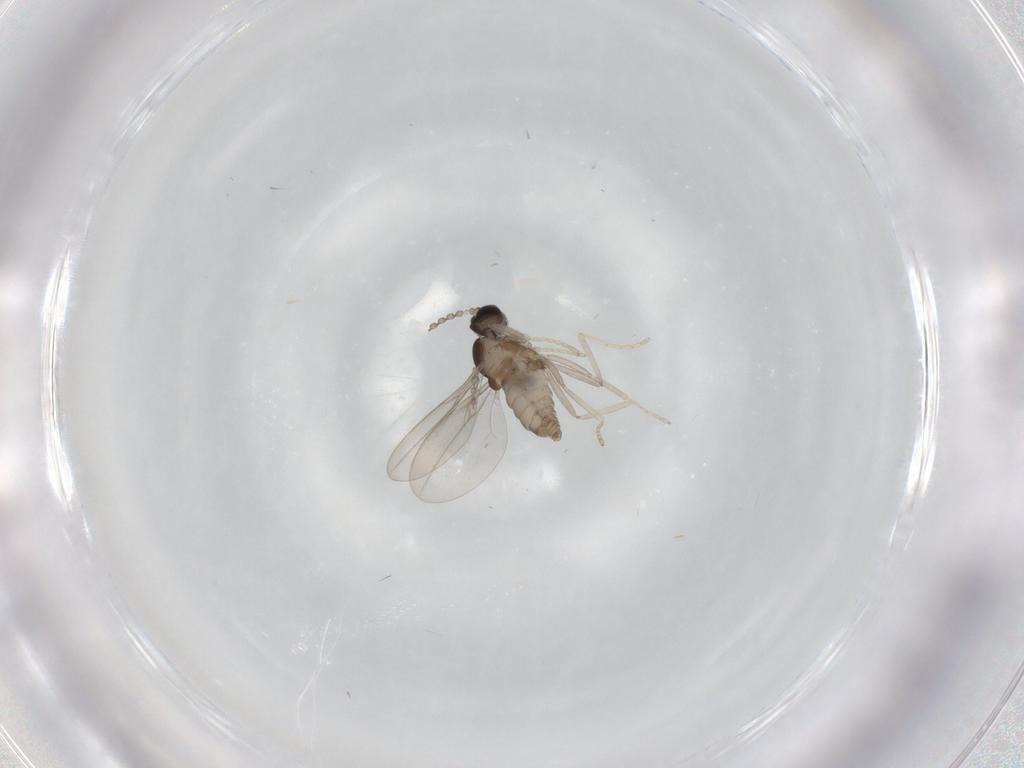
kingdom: Animalia
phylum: Arthropoda
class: Insecta
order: Diptera
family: Cecidomyiidae
